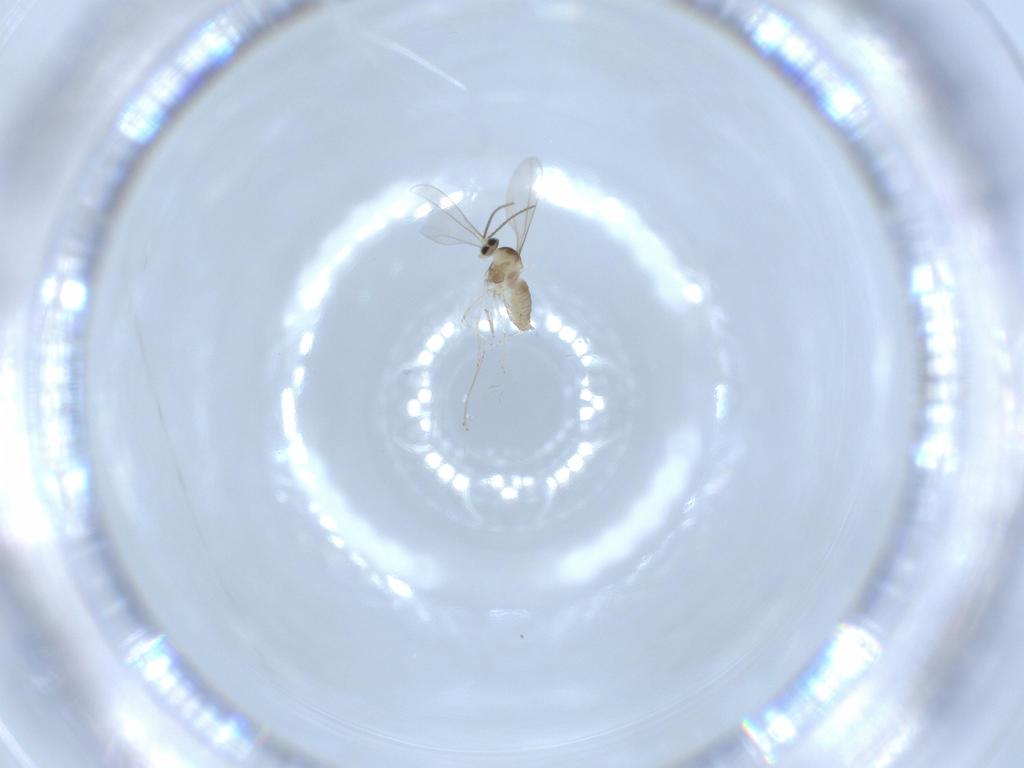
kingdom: Animalia
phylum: Arthropoda
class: Insecta
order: Diptera
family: Cecidomyiidae
